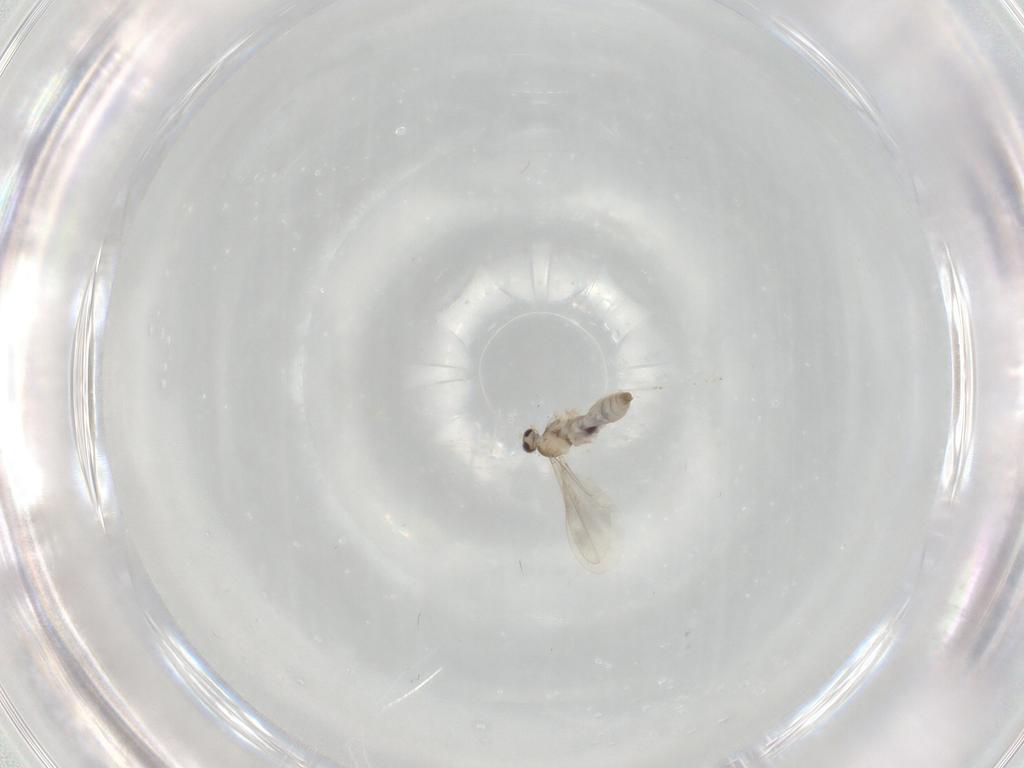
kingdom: Animalia
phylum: Arthropoda
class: Insecta
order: Diptera
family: Cecidomyiidae
